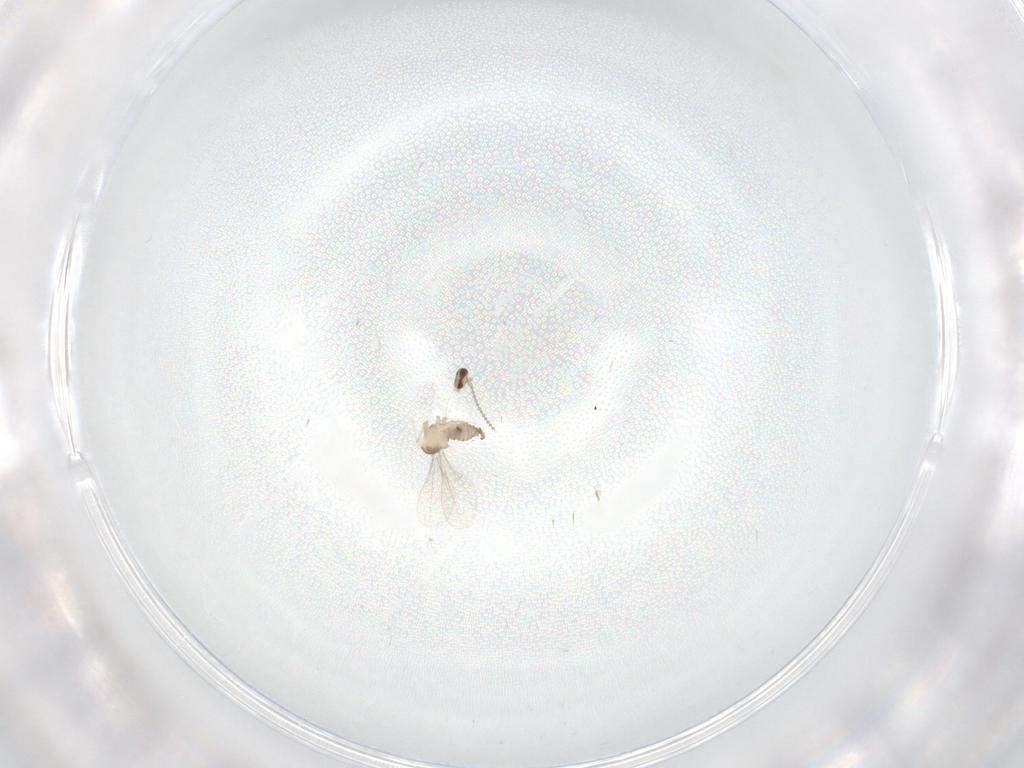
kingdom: Animalia
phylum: Arthropoda
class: Insecta
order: Diptera
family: Cecidomyiidae
